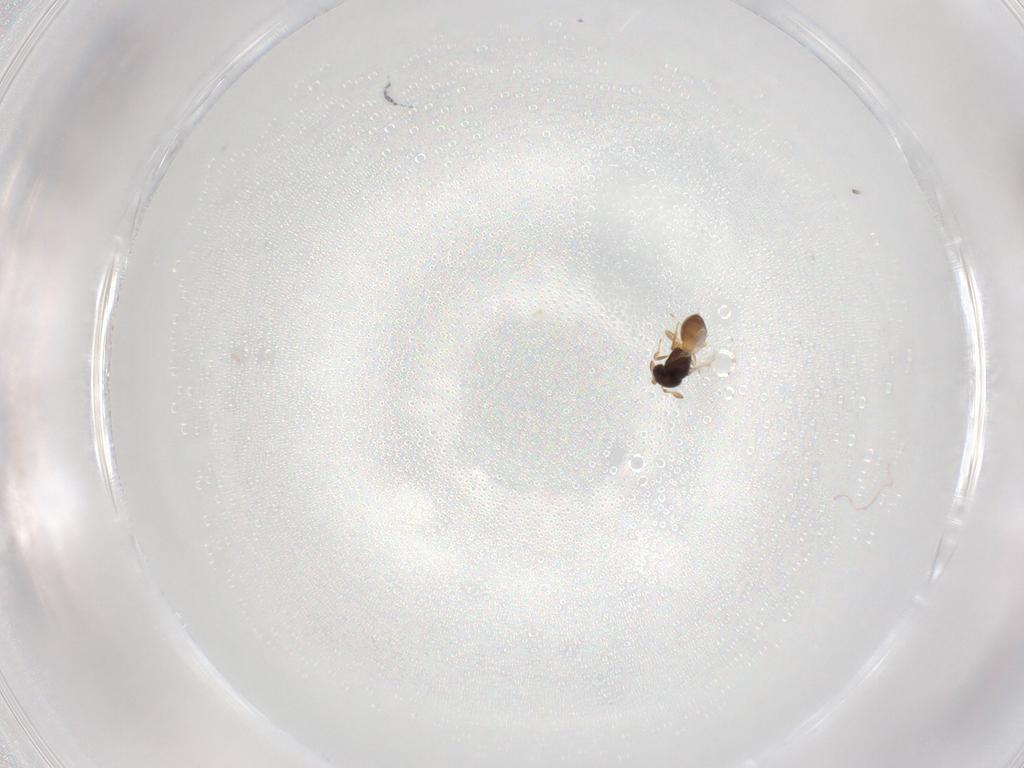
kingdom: Animalia
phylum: Arthropoda
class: Insecta
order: Hymenoptera
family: Scelionidae
